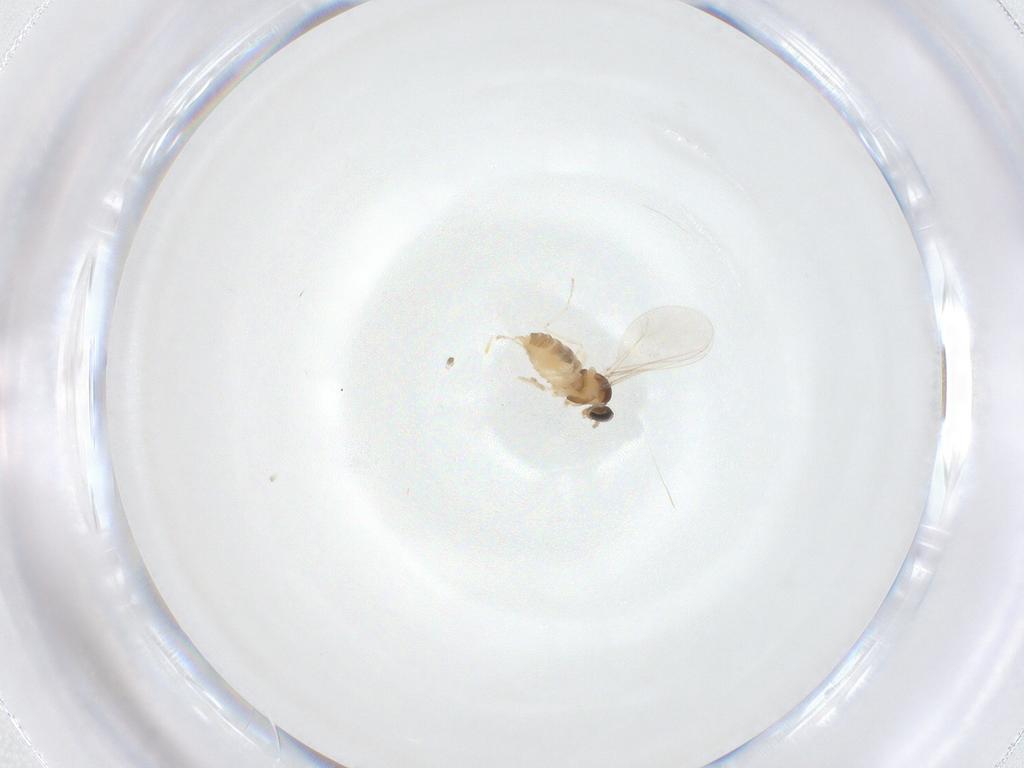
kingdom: Animalia
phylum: Arthropoda
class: Insecta
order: Diptera
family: Cecidomyiidae
